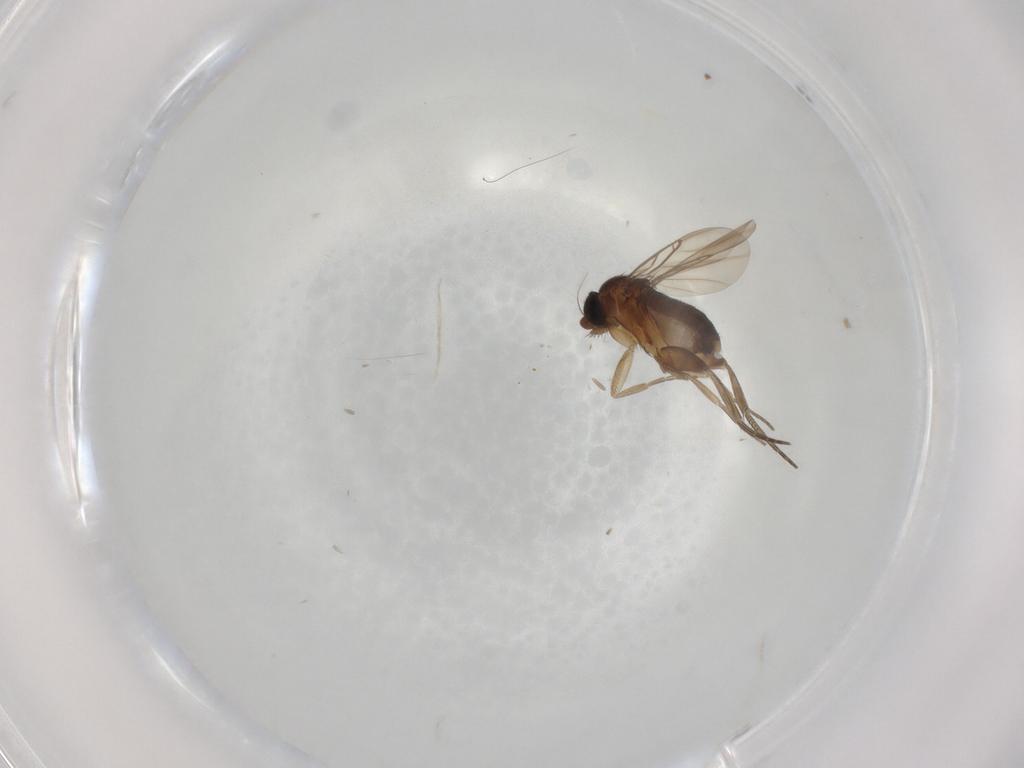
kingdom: Animalia
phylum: Arthropoda
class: Insecta
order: Diptera
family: Phoridae
